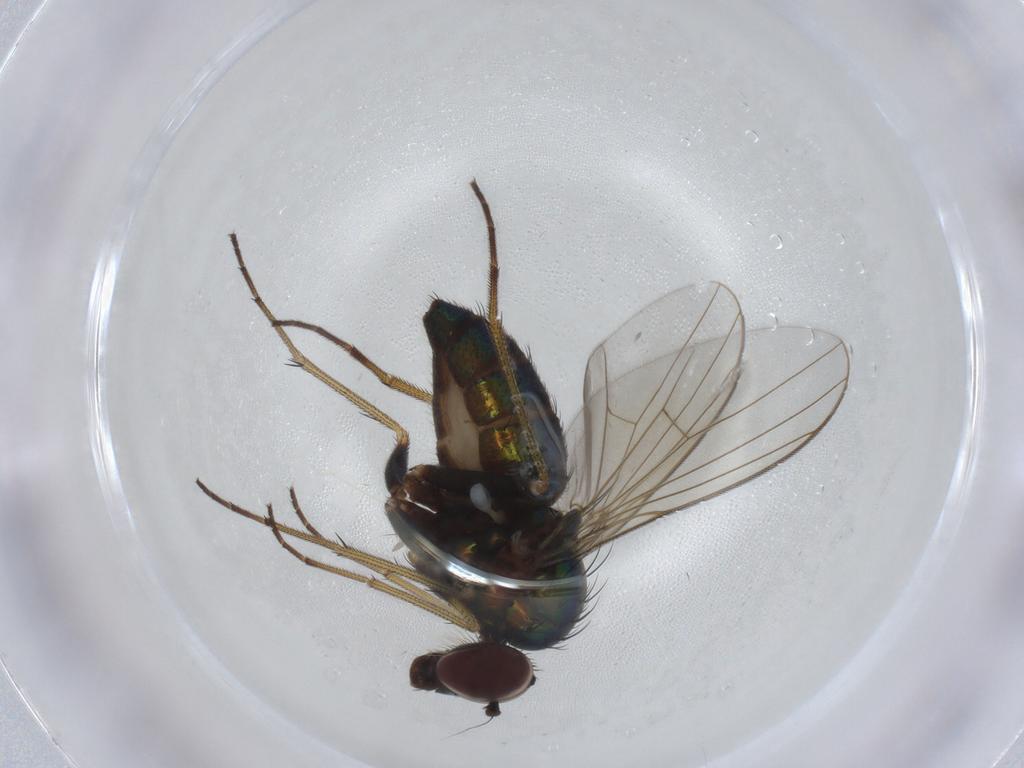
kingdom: Animalia
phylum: Arthropoda
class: Insecta
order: Diptera
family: Dolichopodidae
